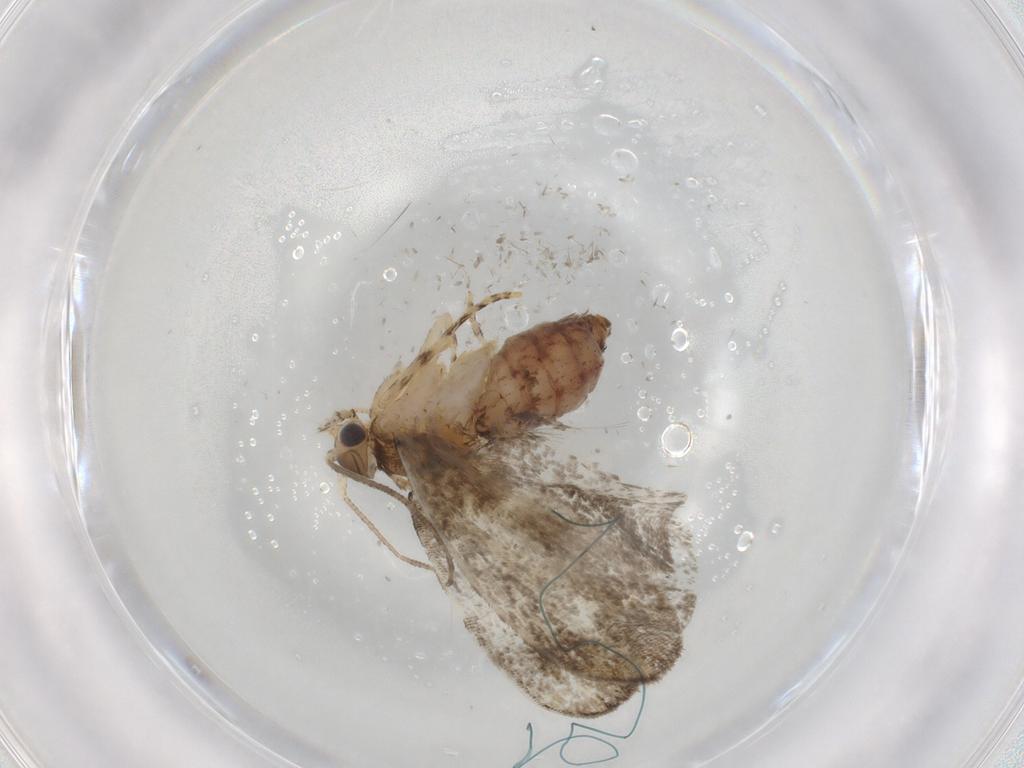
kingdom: Animalia
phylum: Arthropoda
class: Insecta
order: Lepidoptera
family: Tineidae
